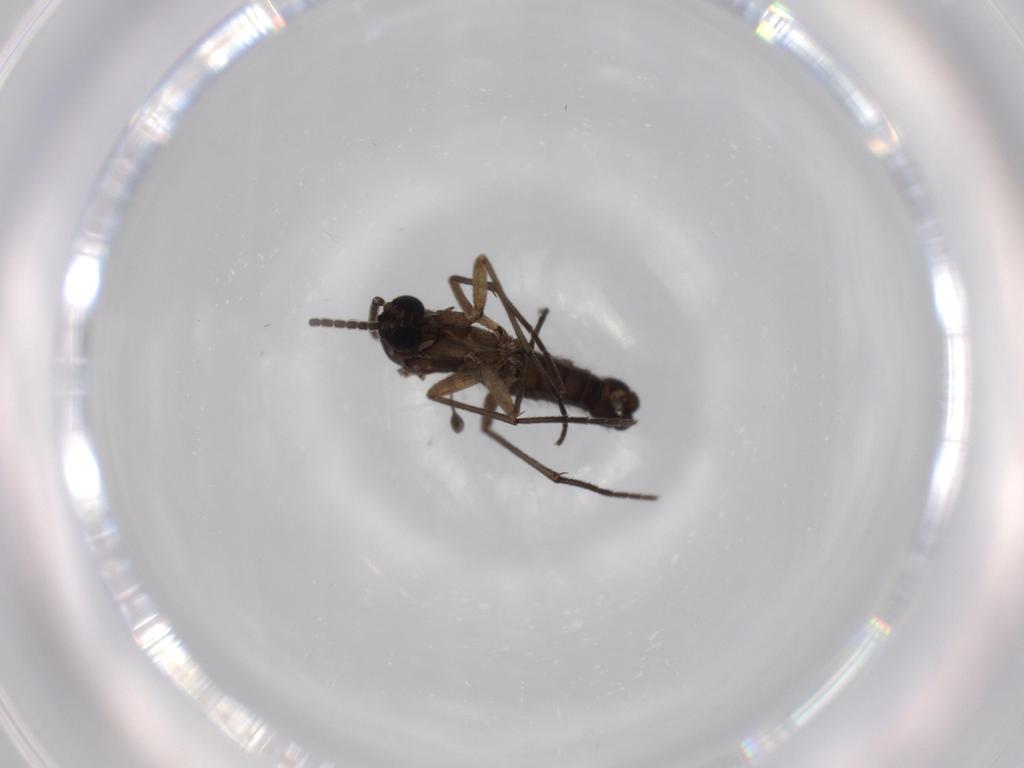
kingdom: Animalia
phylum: Arthropoda
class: Insecta
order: Diptera
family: Sciaridae
